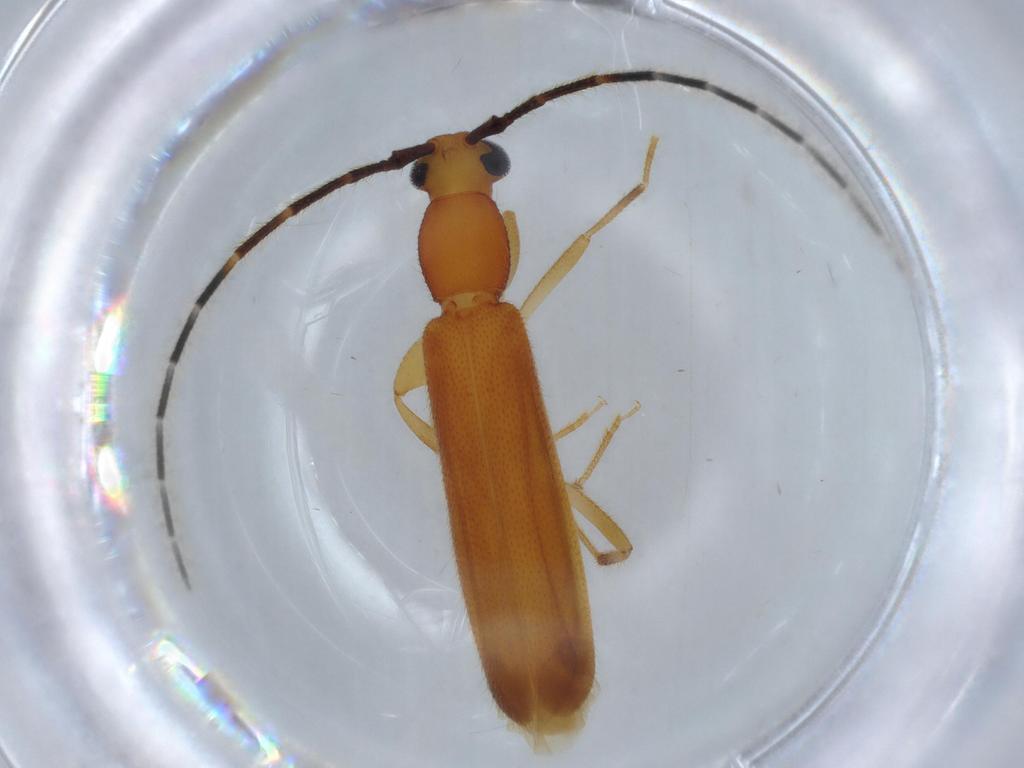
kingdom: Animalia
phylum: Arthropoda
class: Insecta
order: Coleoptera
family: Cerambycidae
